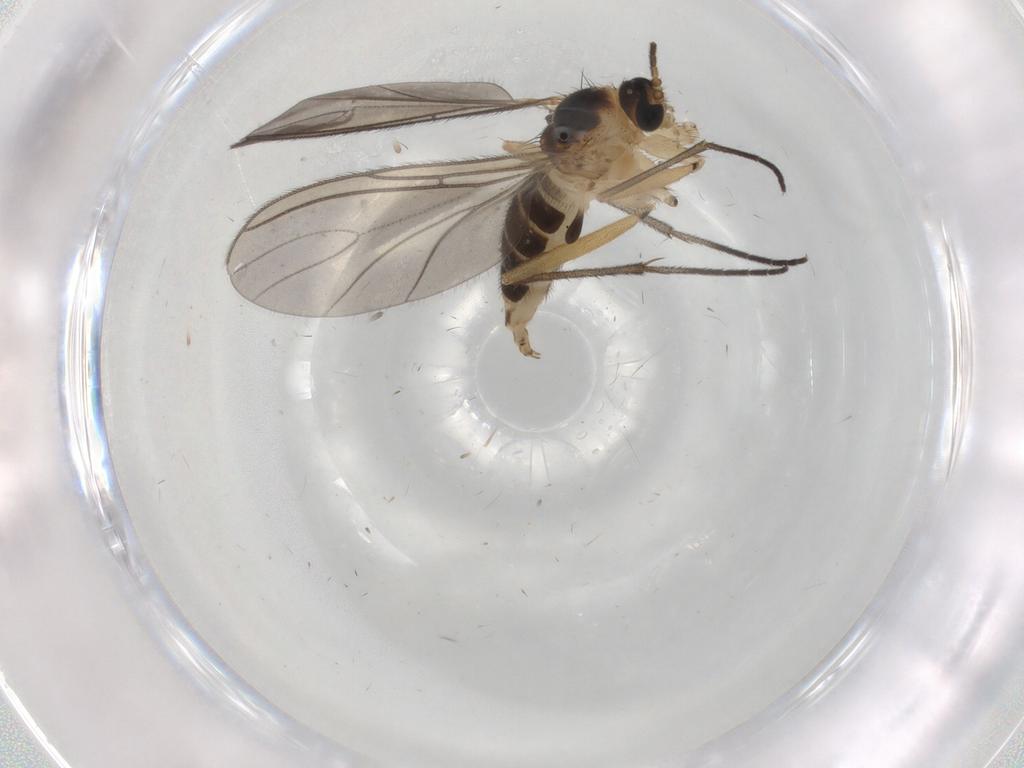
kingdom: Animalia
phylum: Arthropoda
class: Insecta
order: Diptera
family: Sciaridae
